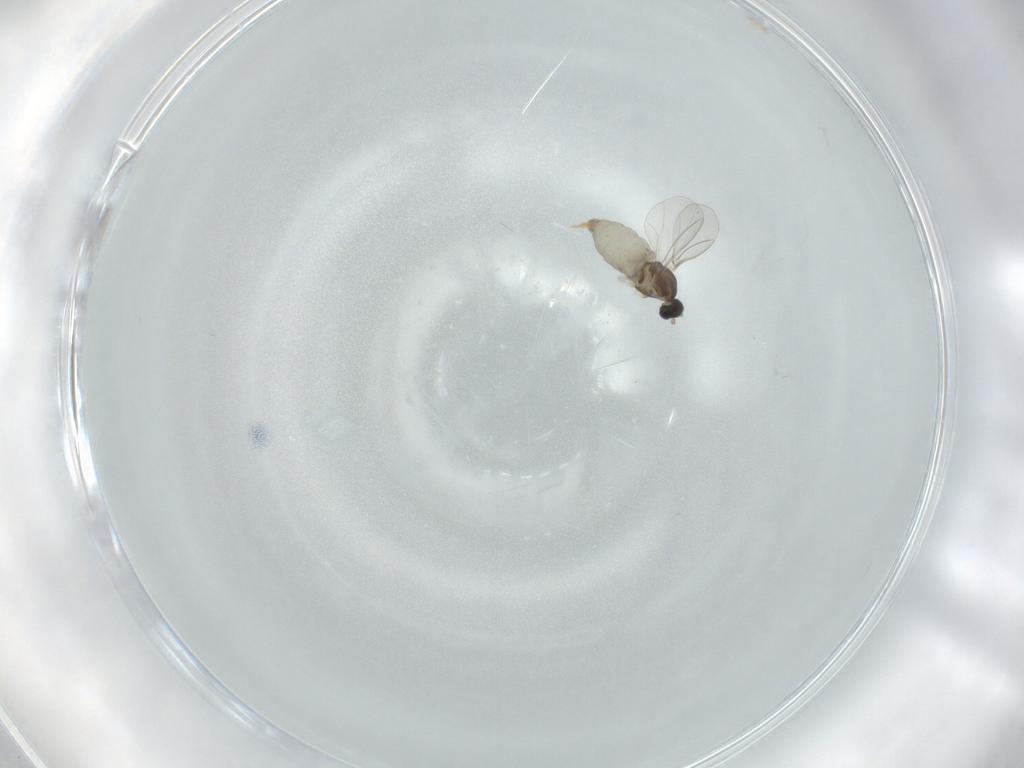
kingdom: Animalia
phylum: Arthropoda
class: Insecta
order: Diptera
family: Cecidomyiidae
